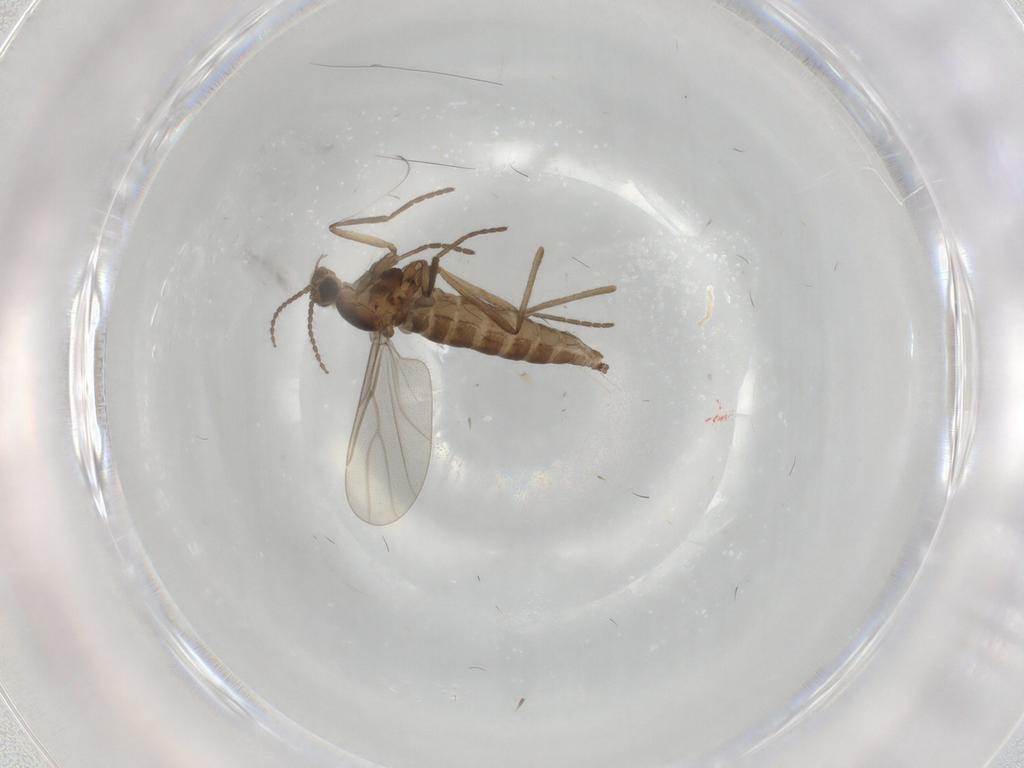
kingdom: Animalia
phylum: Arthropoda
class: Insecta
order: Diptera
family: Cecidomyiidae
